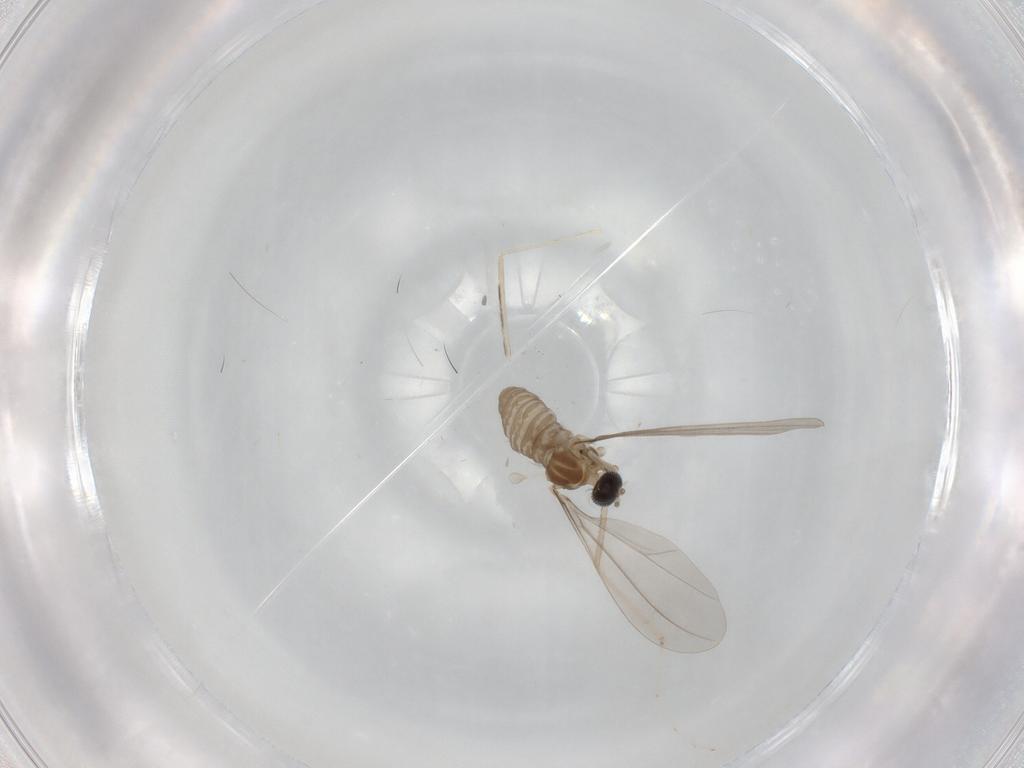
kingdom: Animalia
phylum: Arthropoda
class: Insecta
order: Diptera
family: Cecidomyiidae
